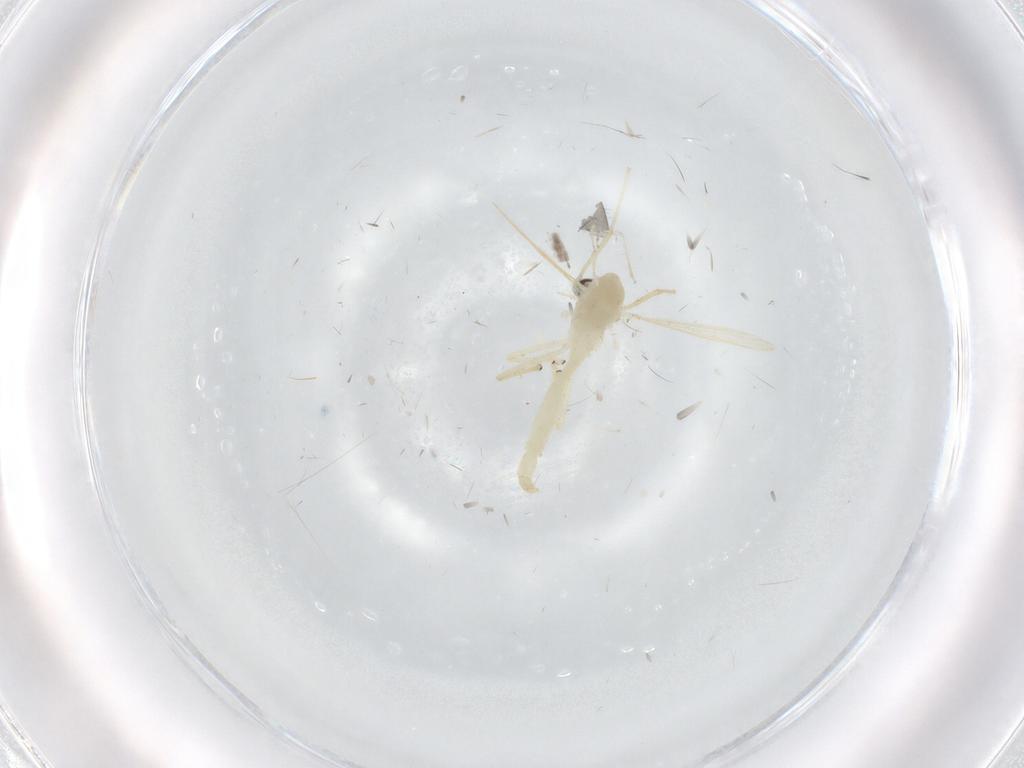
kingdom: Animalia
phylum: Arthropoda
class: Insecta
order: Diptera
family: Chironomidae
